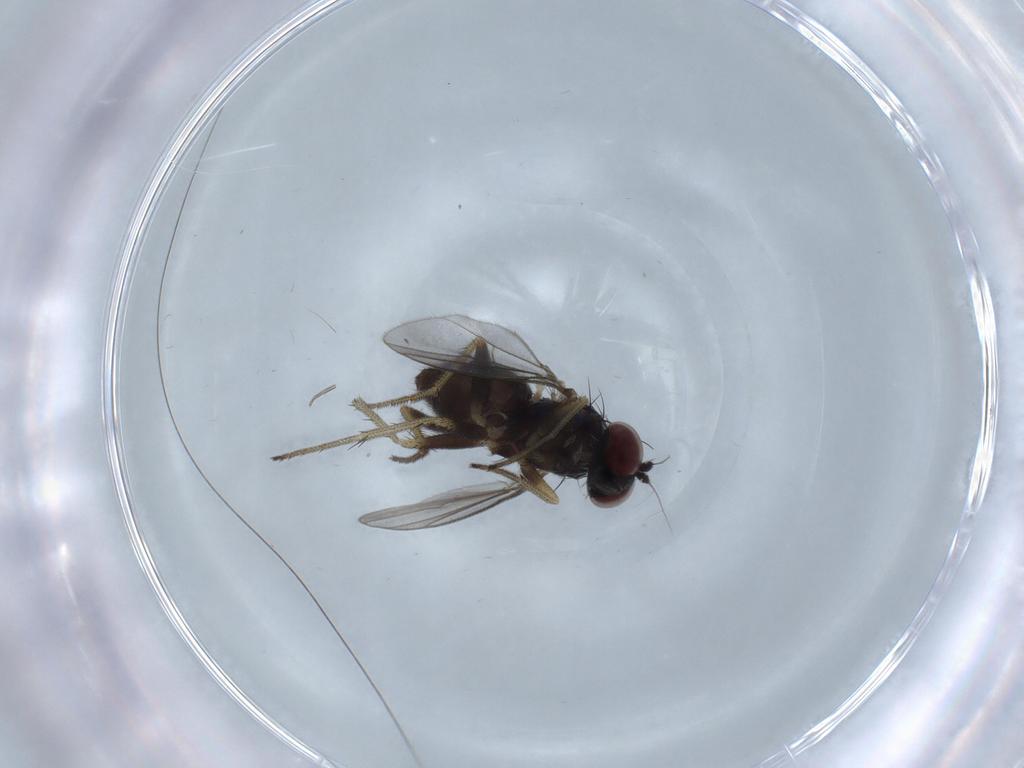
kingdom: Animalia
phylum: Arthropoda
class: Insecta
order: Diptera
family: Dolichopodidae
